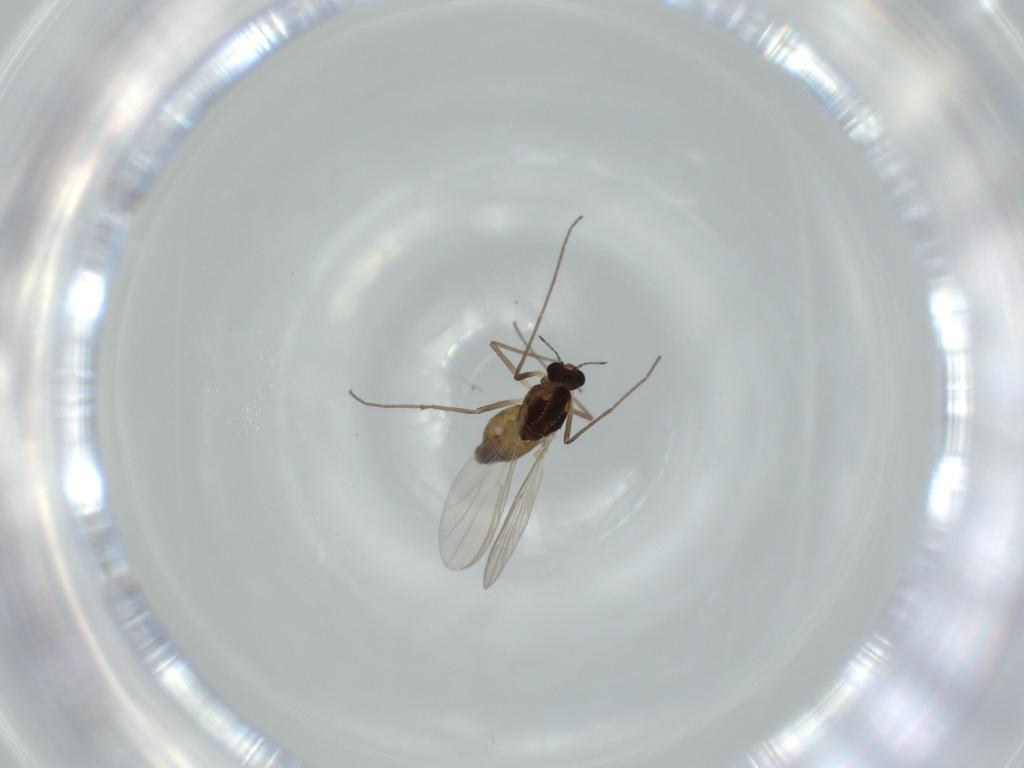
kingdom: Animalia
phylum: Arthropoda
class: Insecta
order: Diptera
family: Chironomidae
